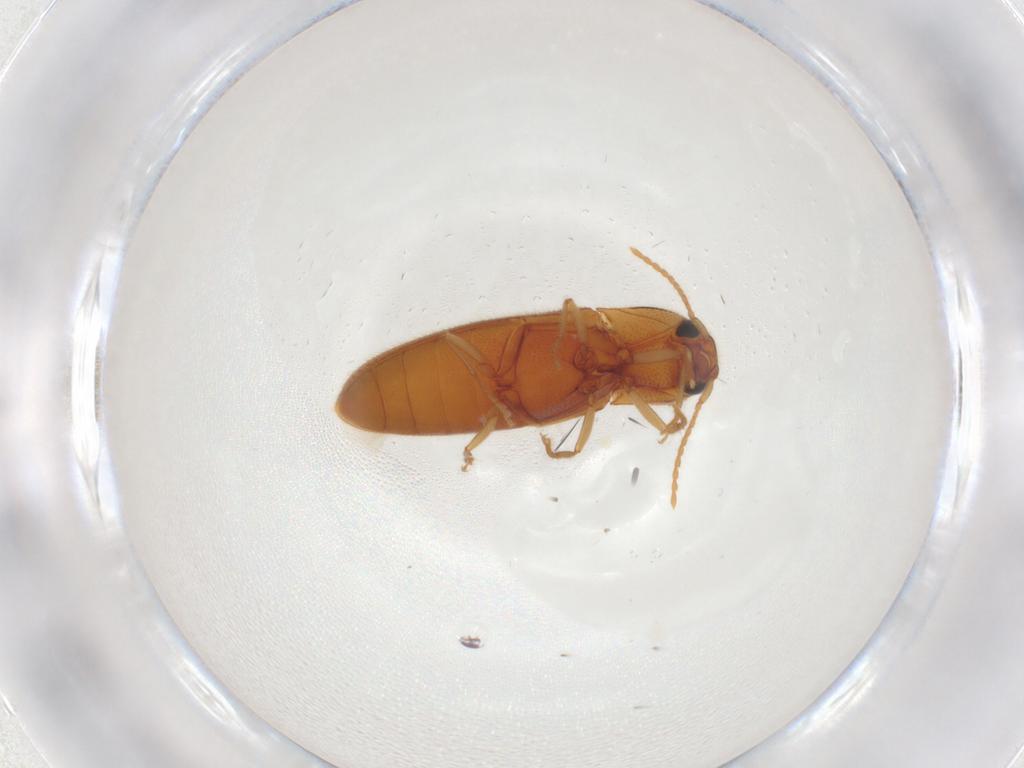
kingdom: Animalia
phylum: Arthropoda
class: Insecta
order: Coleoptera
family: Elateridae
